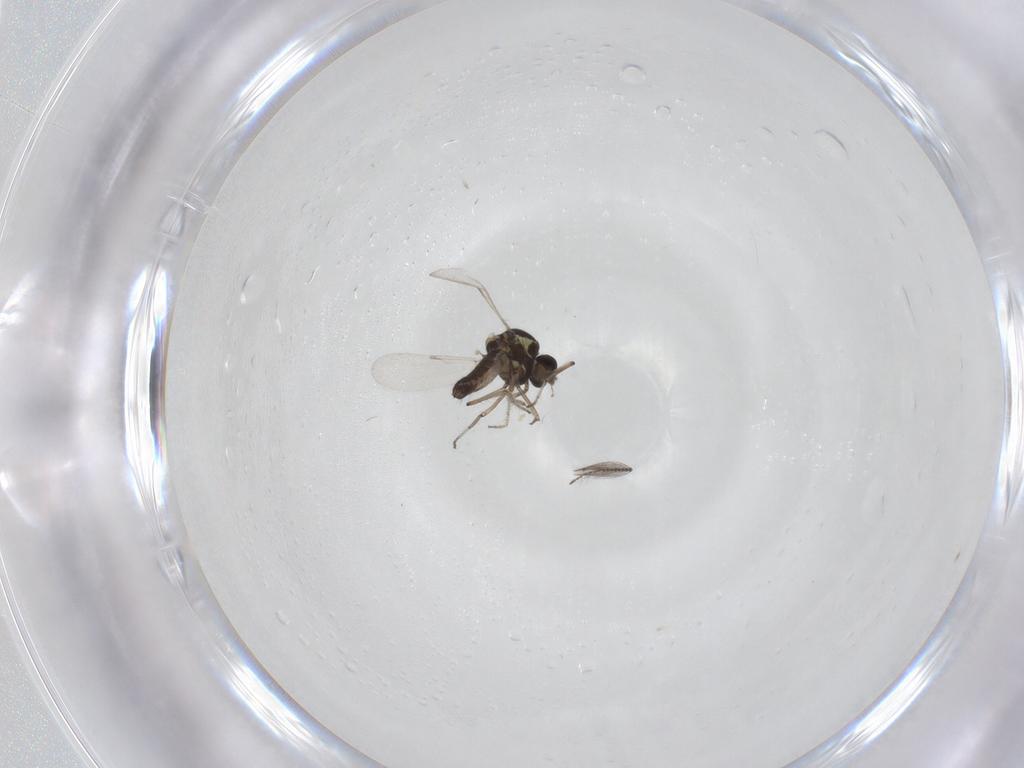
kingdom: Animalia
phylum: Arthropoda
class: Insecta
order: Diptera
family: Ceratopogonidae
